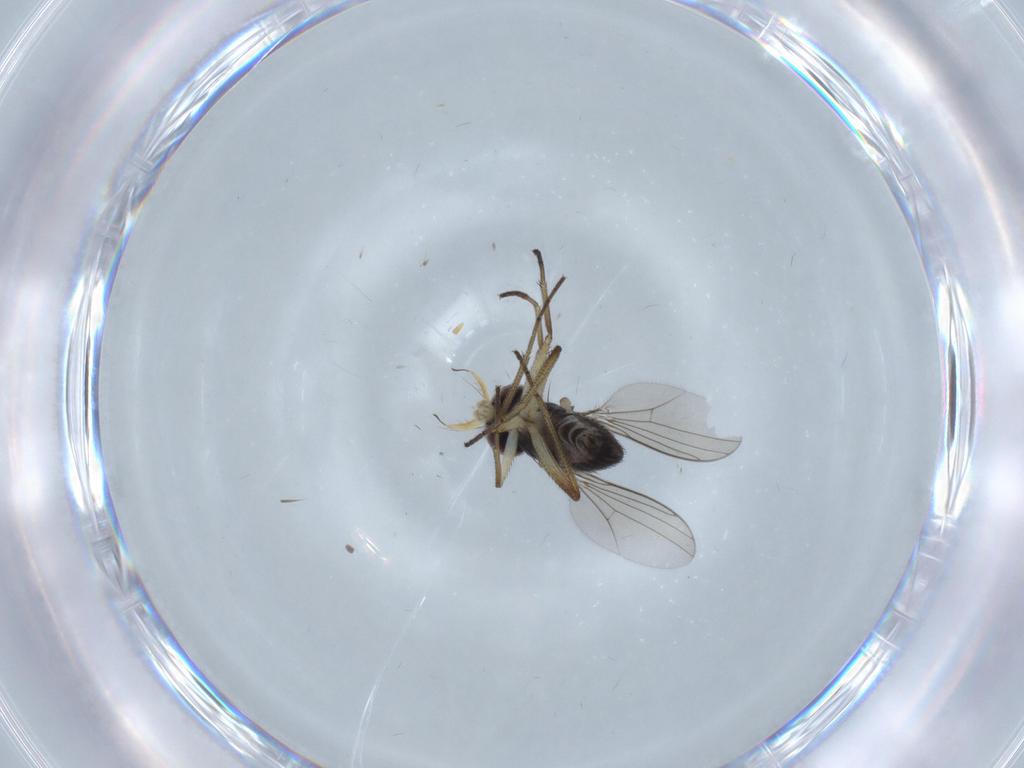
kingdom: Animalia
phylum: Arthropoda
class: Insecta
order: Diptera
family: Dolichopodidae
